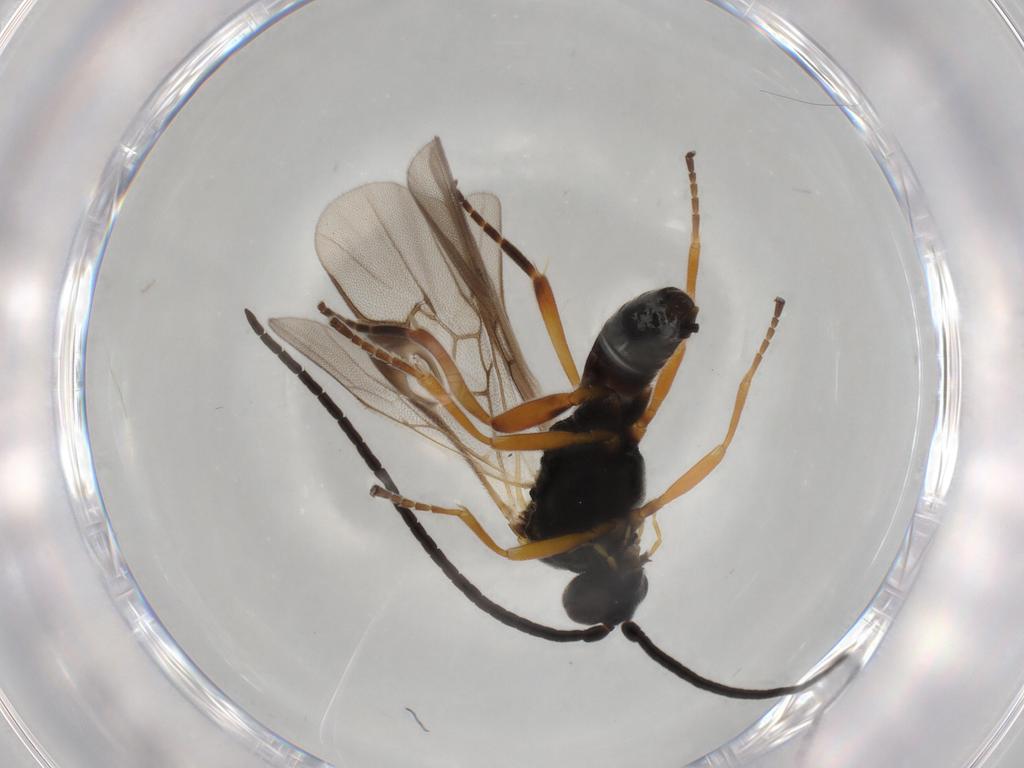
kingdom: Animalia
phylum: Arthropoda
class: Insecta
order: Hymenoptera
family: Braconidae
